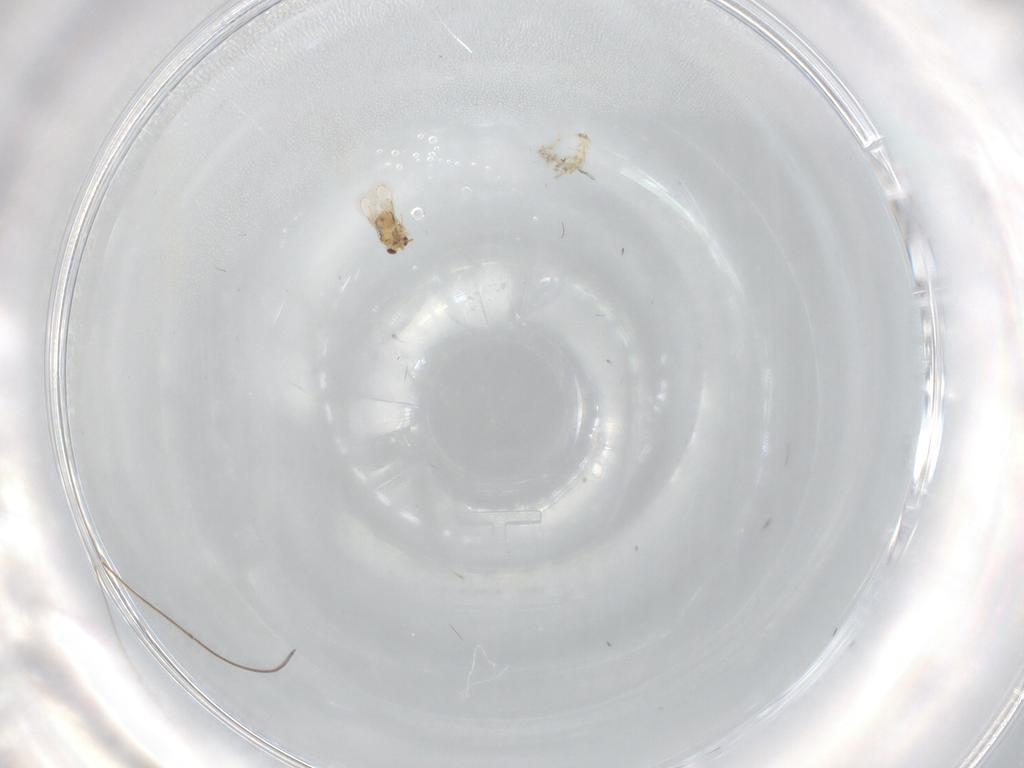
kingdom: Animalia
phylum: Arthropoda
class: Insecta
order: Hymenoptera
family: Aphelinidae
